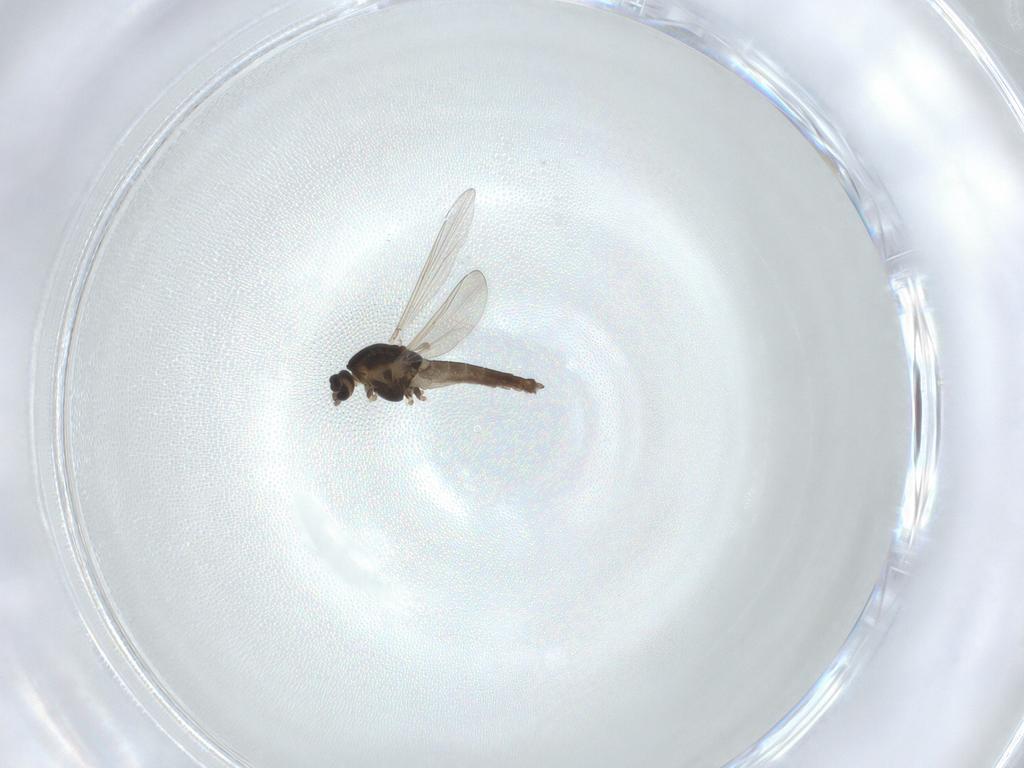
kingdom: Animalia
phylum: Arthropoda
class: Insecta
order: Diptera
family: Chironomidae
